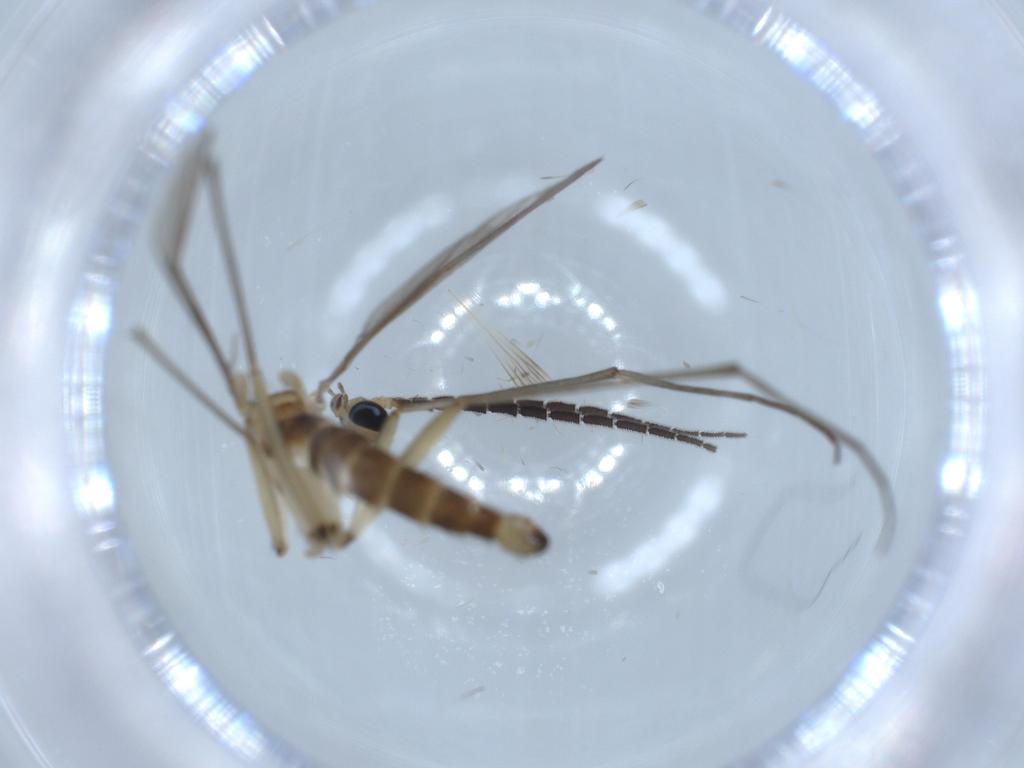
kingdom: Animalia
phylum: Arthropoda
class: Insecta
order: Diptera
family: Sciaridae
